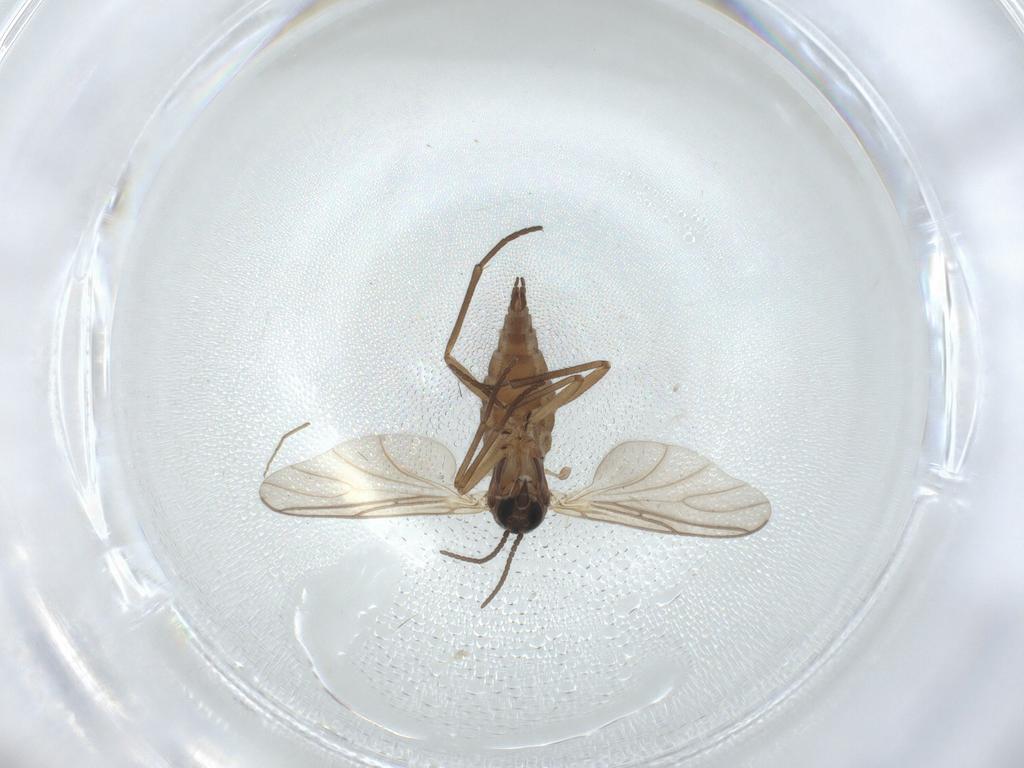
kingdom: Animalia
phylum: Arthropoda
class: Insecta
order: Diptera
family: Sciaridae
